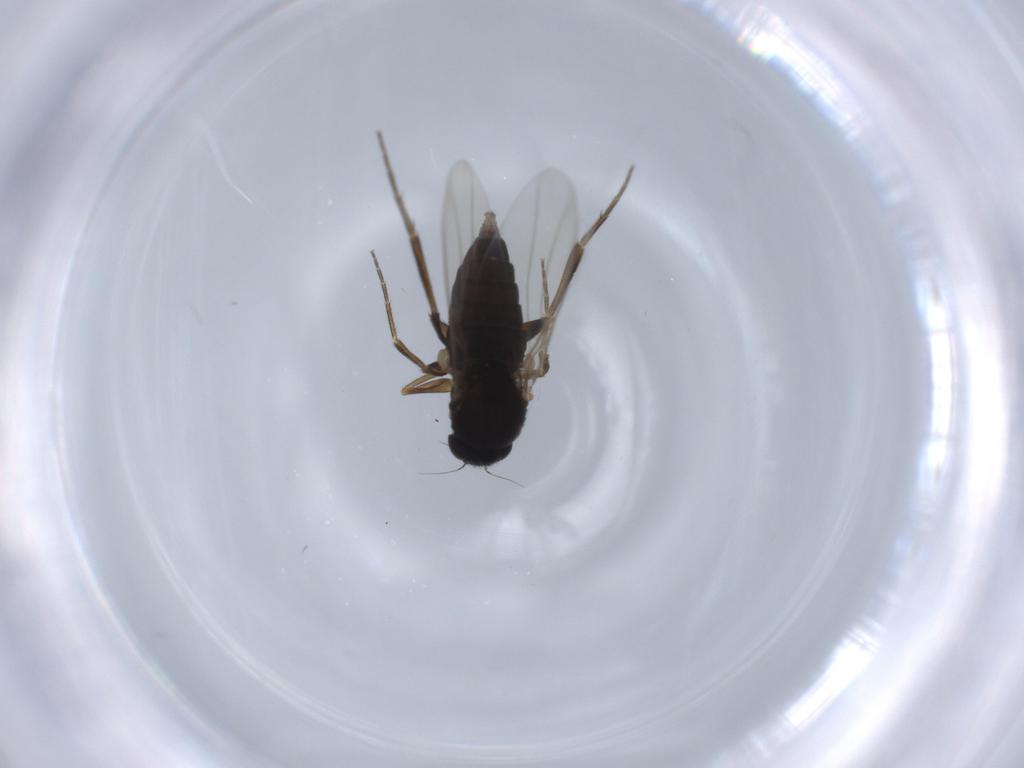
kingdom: Animalia
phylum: Arthropoda
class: Insecta
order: Diptera
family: Phoridae
